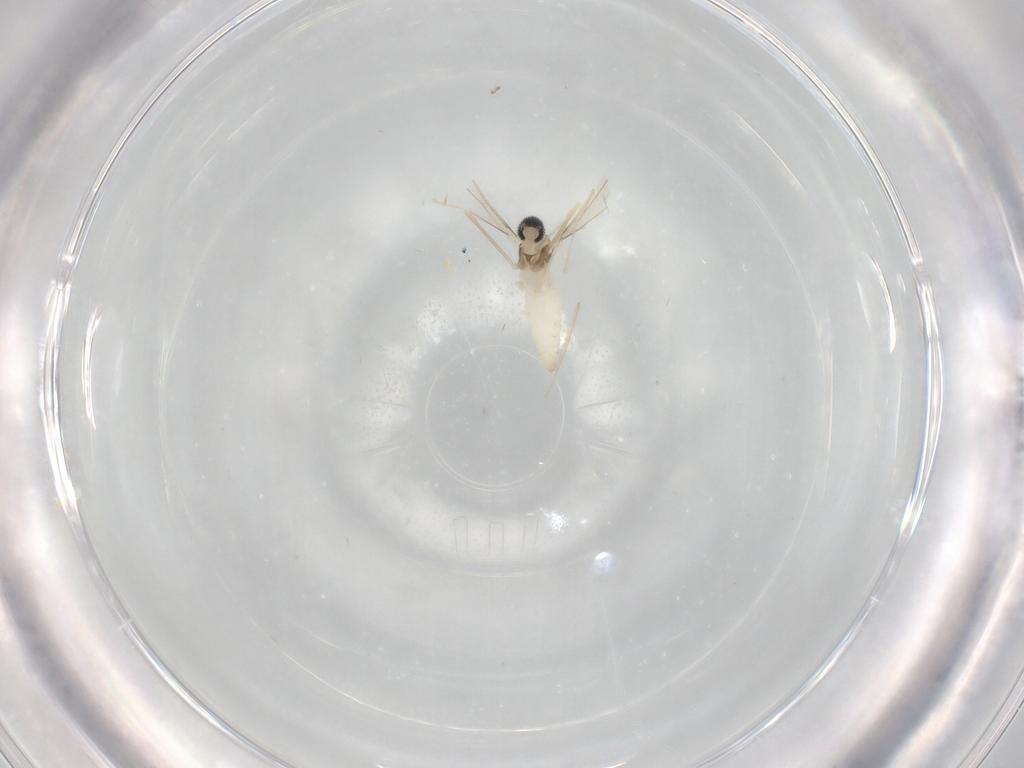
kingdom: Animalia
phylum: Arthropoda
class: Insecta
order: Diptera
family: Cecidomyiidae
